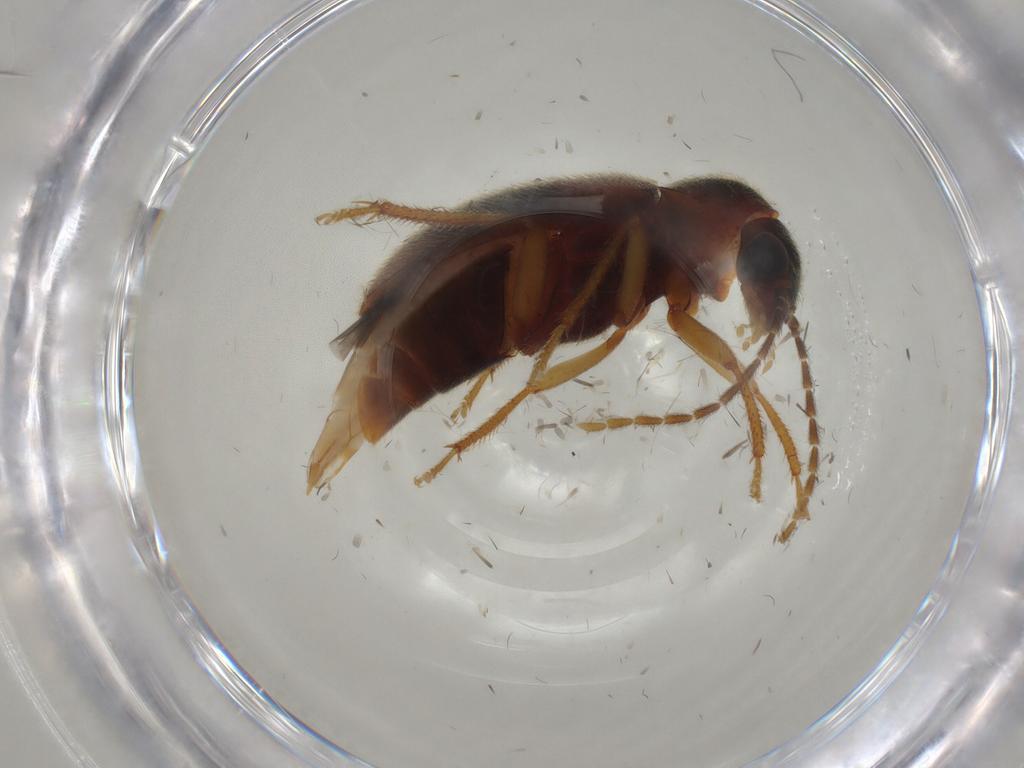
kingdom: Animalia
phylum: Arthropoda
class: Insecta
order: Coleoptera
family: Ptilodactylidae
